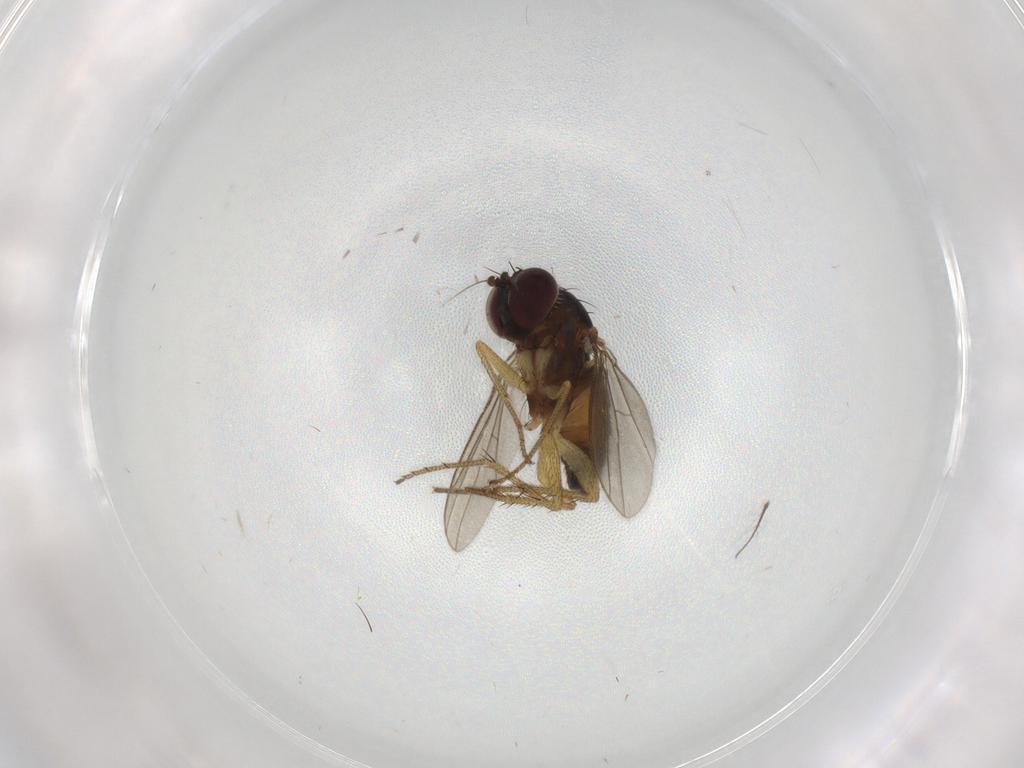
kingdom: Animalia
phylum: Arthropoda
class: Insecta
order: Diptera
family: Dolichopodidae
